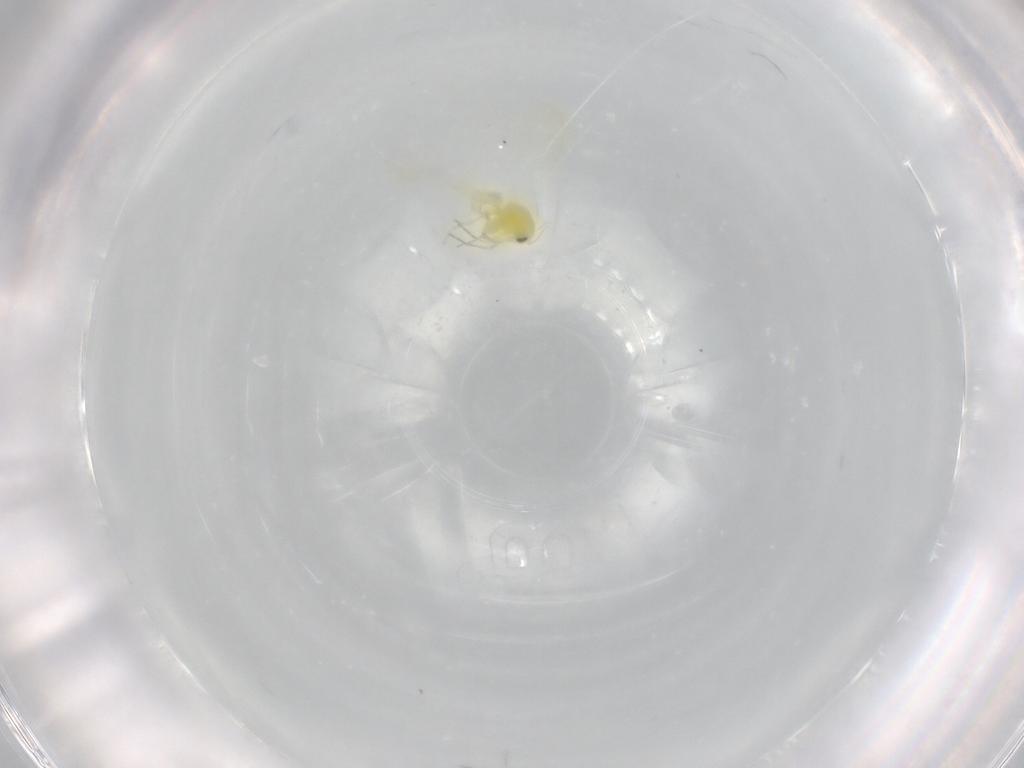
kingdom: Animalia
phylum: Arthropoda
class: Insecta
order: Hemiptera
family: Aleyrodidae
